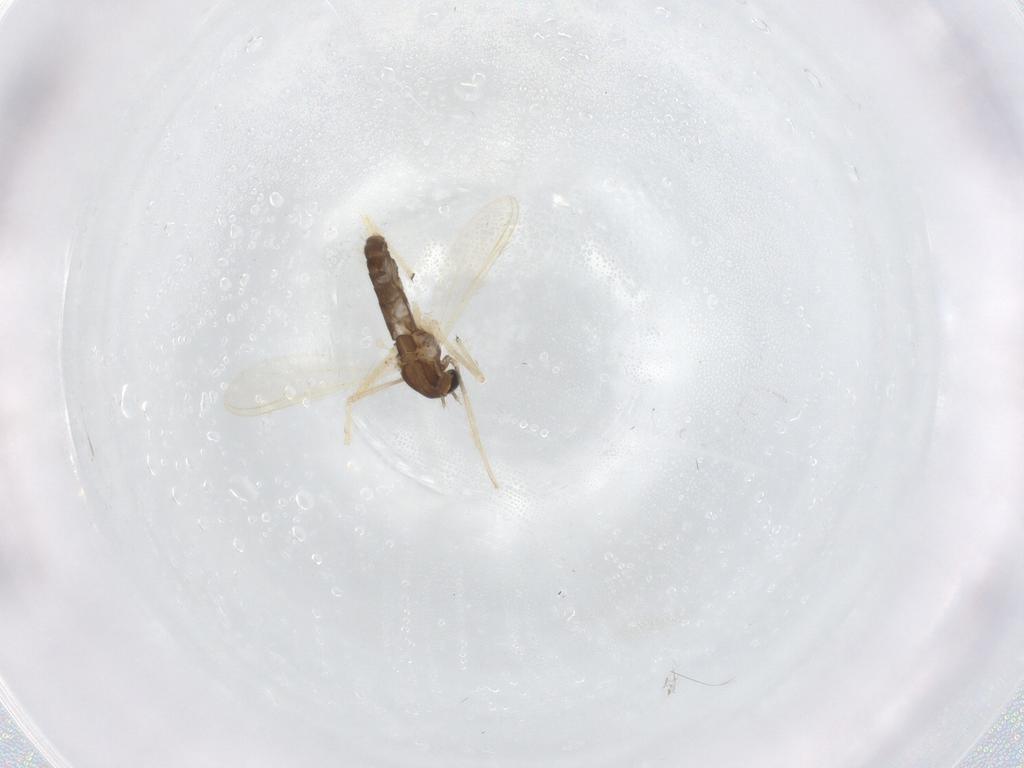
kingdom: Animalia
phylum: Arthropoda
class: Insecta
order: Diptera
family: Chironomidae
